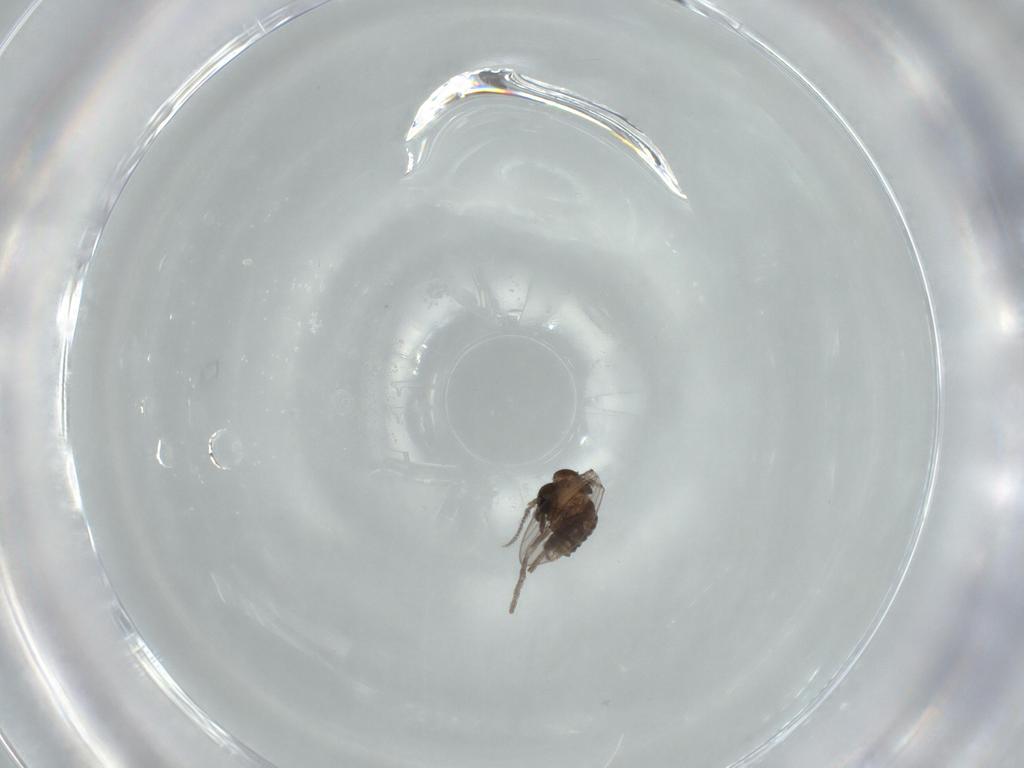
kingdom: Animalia
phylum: Arthropoda
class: Insecta
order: Diptera
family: Psychodidae
